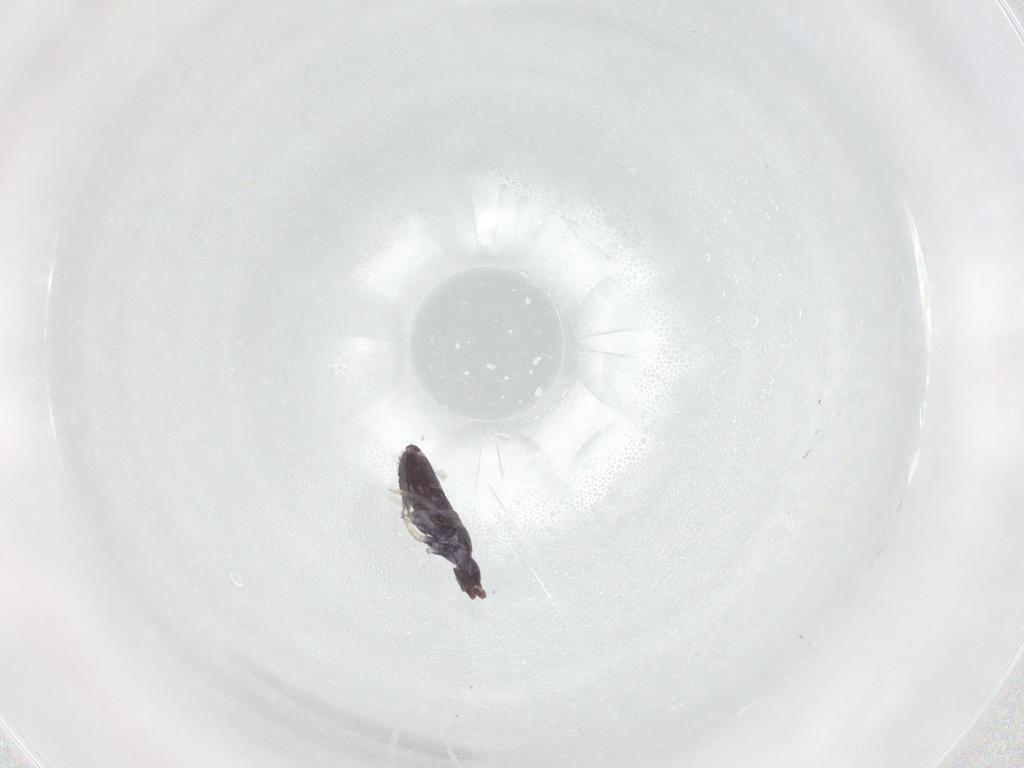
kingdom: Animalia
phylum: Arthropoda
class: Collembola
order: Entomobryomorpha
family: Entomobryidae
